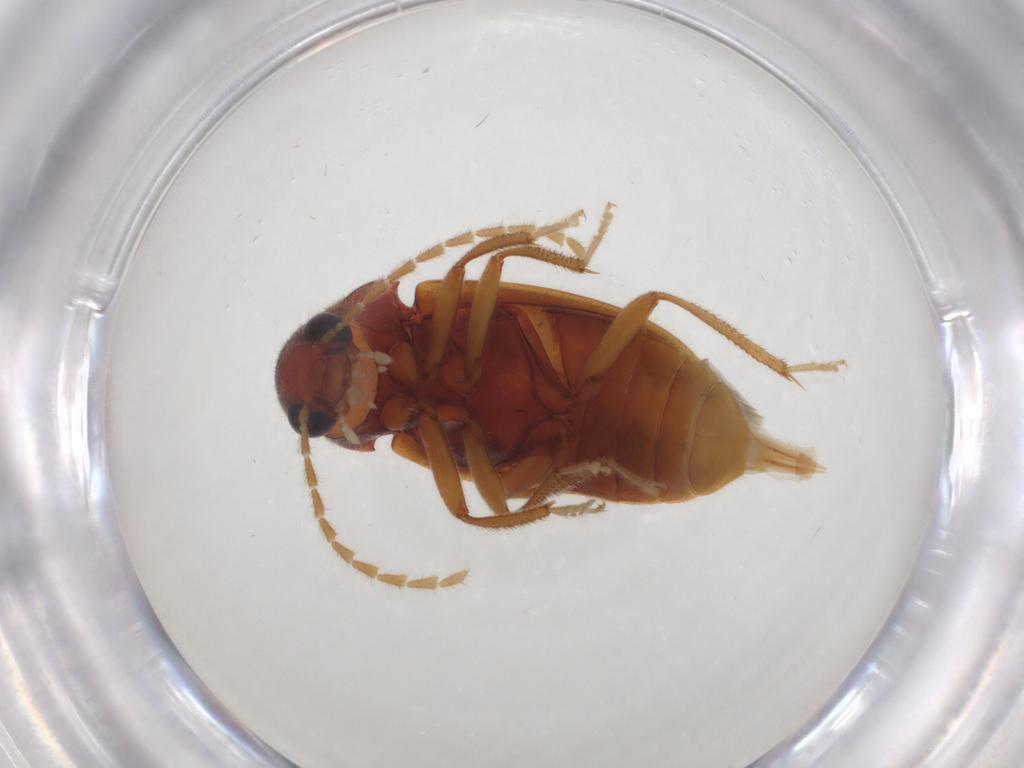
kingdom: Animalia
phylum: Arthropoda
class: Insecta
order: Coleoptera
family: Ptilodactylidae
